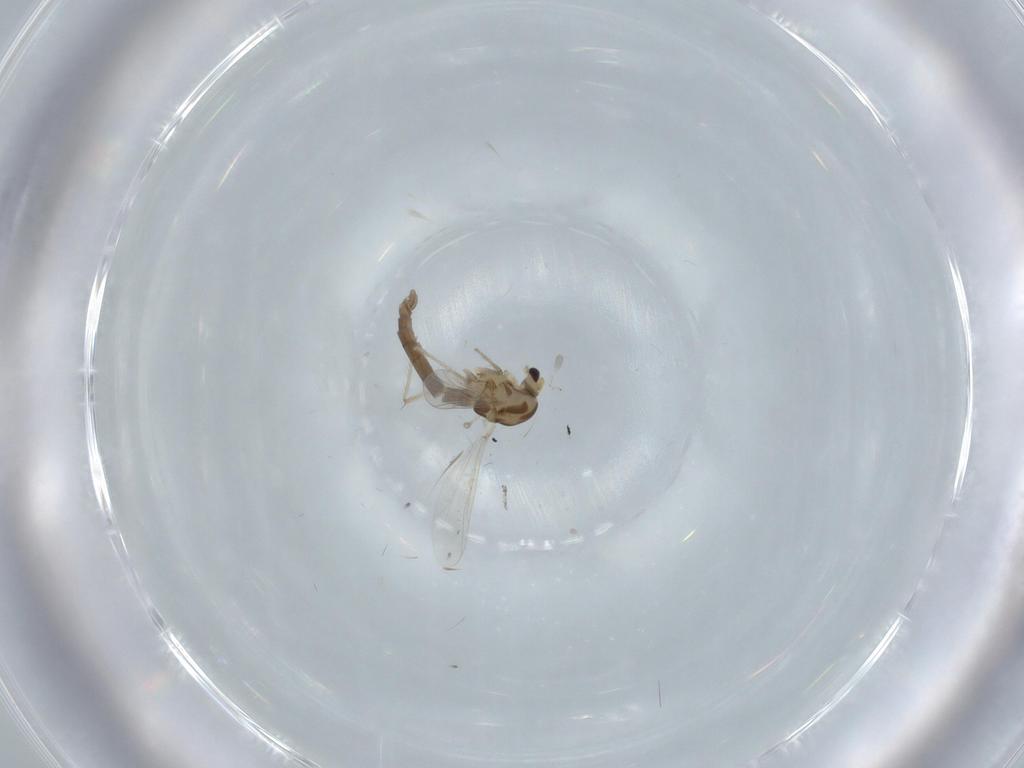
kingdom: Animalia
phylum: Arthropoda
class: Insecta
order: Diptera
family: Chironomidae
